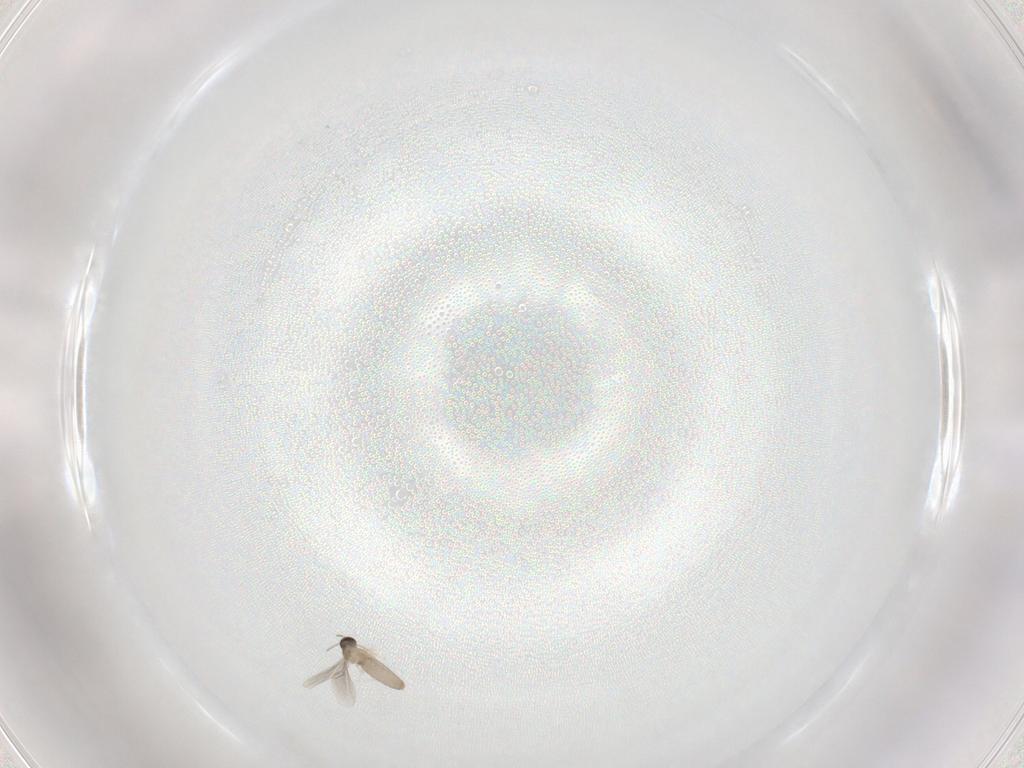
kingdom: Animalia
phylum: Arthropoda
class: Insecta
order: Diptera
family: Cecidomyiidae
